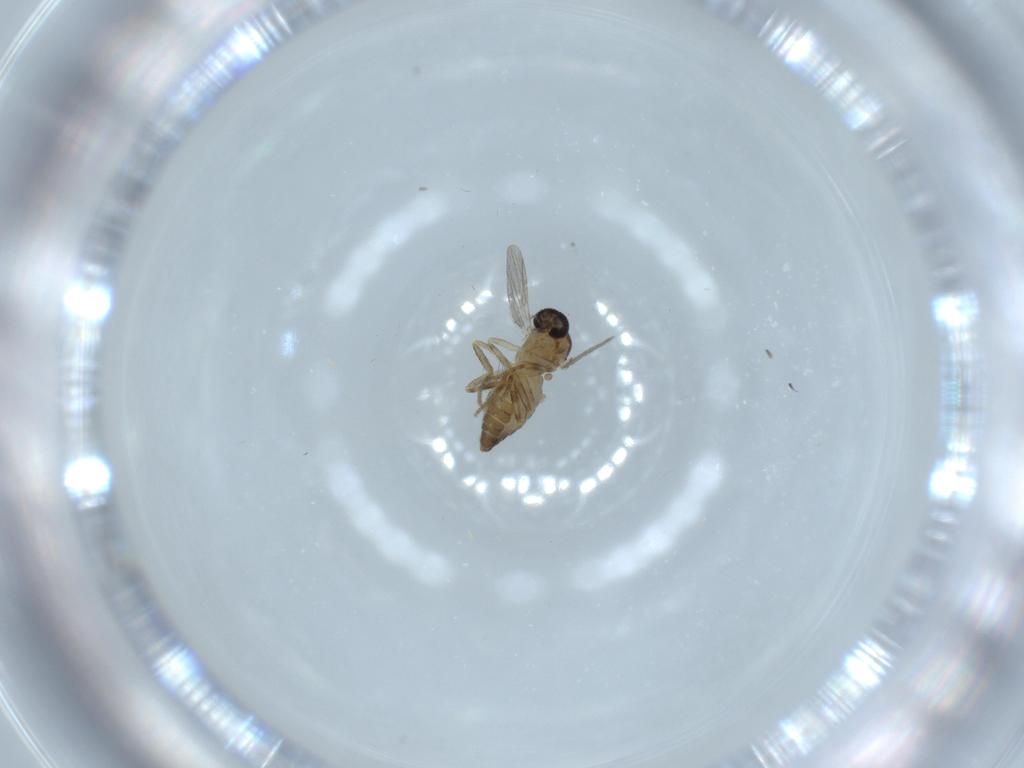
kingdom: Animalia
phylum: Arthropoda
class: Insecta
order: Diptera
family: Ceratopogonidae
